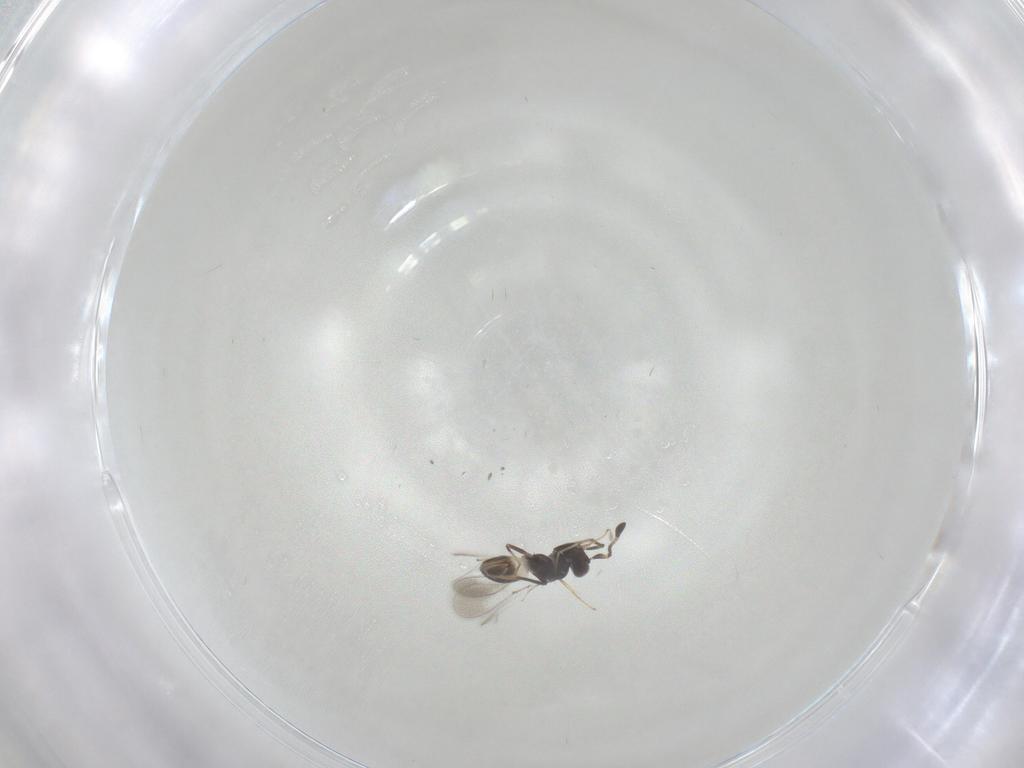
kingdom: Animalia
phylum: Arthropoda
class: Insecta
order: Hymenoptera
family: Mymaridae
